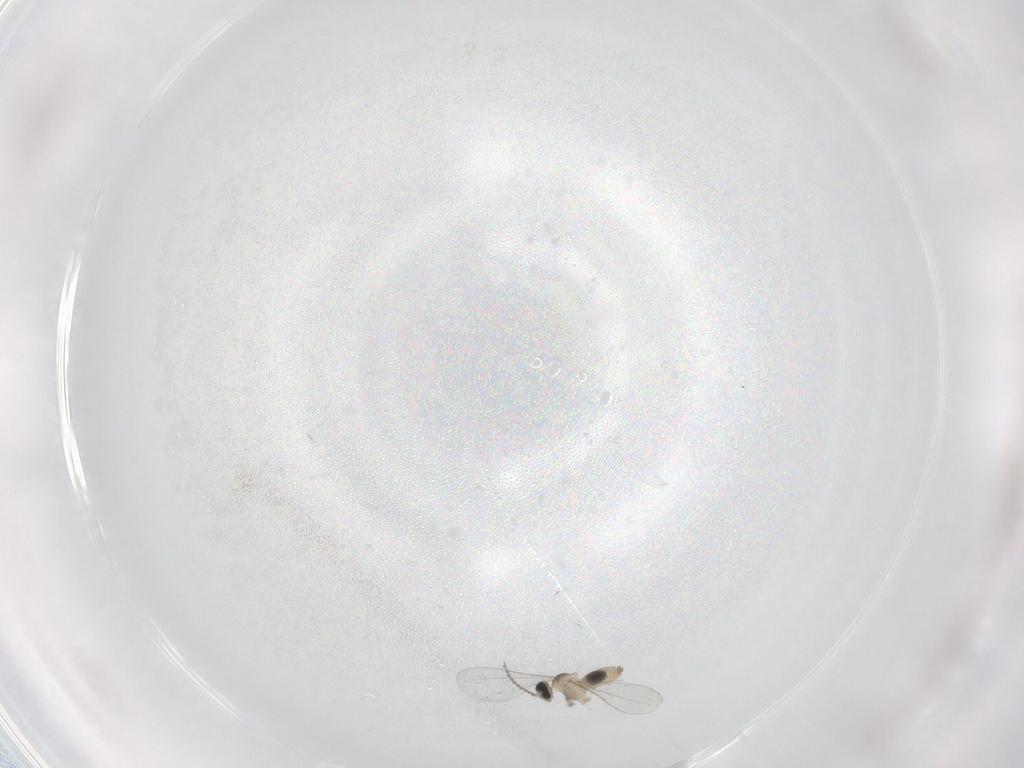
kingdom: Animalia
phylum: Arthropoda
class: Insecta
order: Diptera
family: Cecidomyiidae
